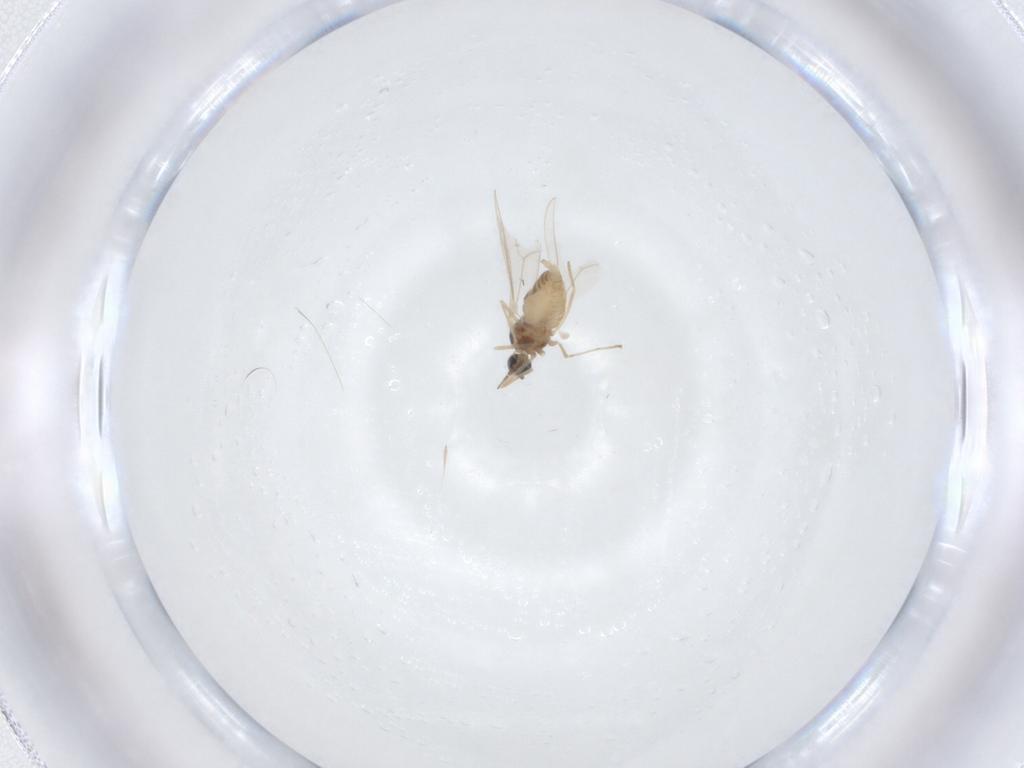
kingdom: Animalia
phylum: Arthropoda
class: Insecta
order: Diptera
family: Cecidomyiidae
